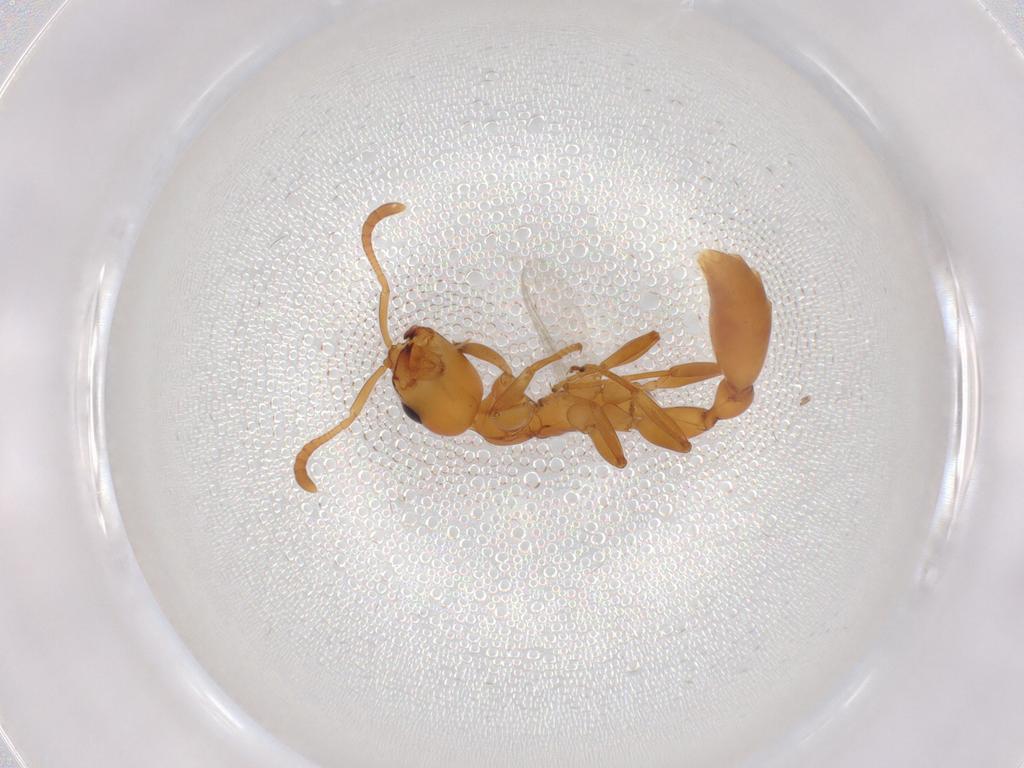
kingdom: Animalia
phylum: Arthropoda
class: Insecta
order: Hymenoptera
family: Formicidae
